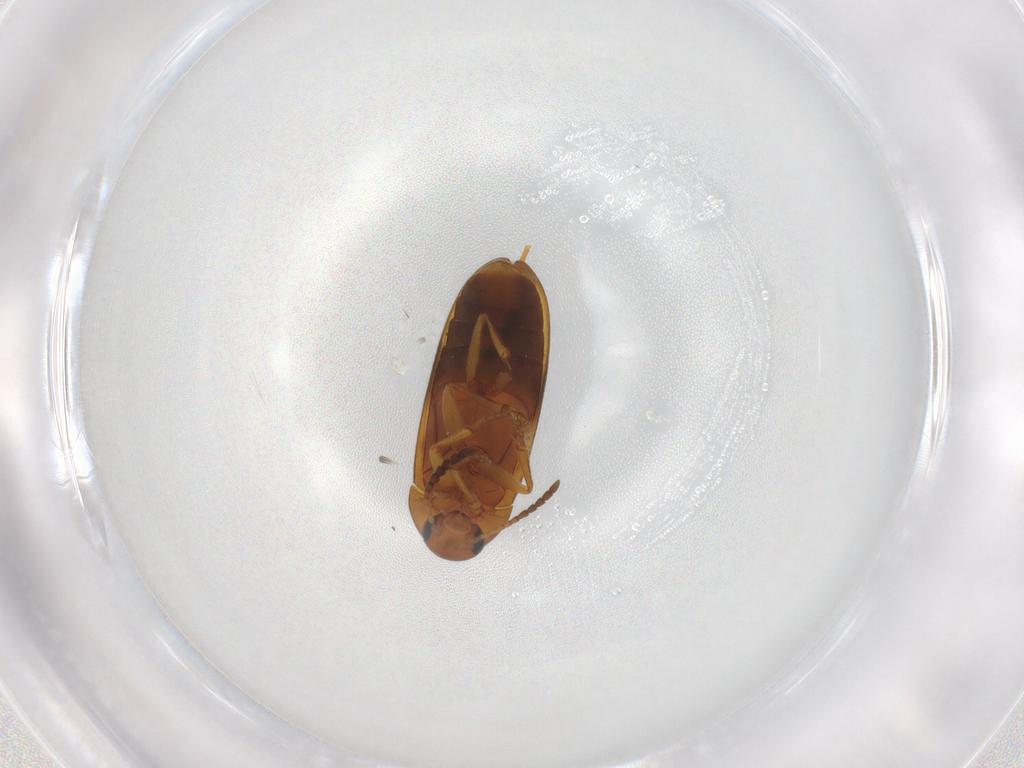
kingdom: Animalia
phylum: Arthropoda
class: Insecta
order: Coleoptera
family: Scraptiidae
